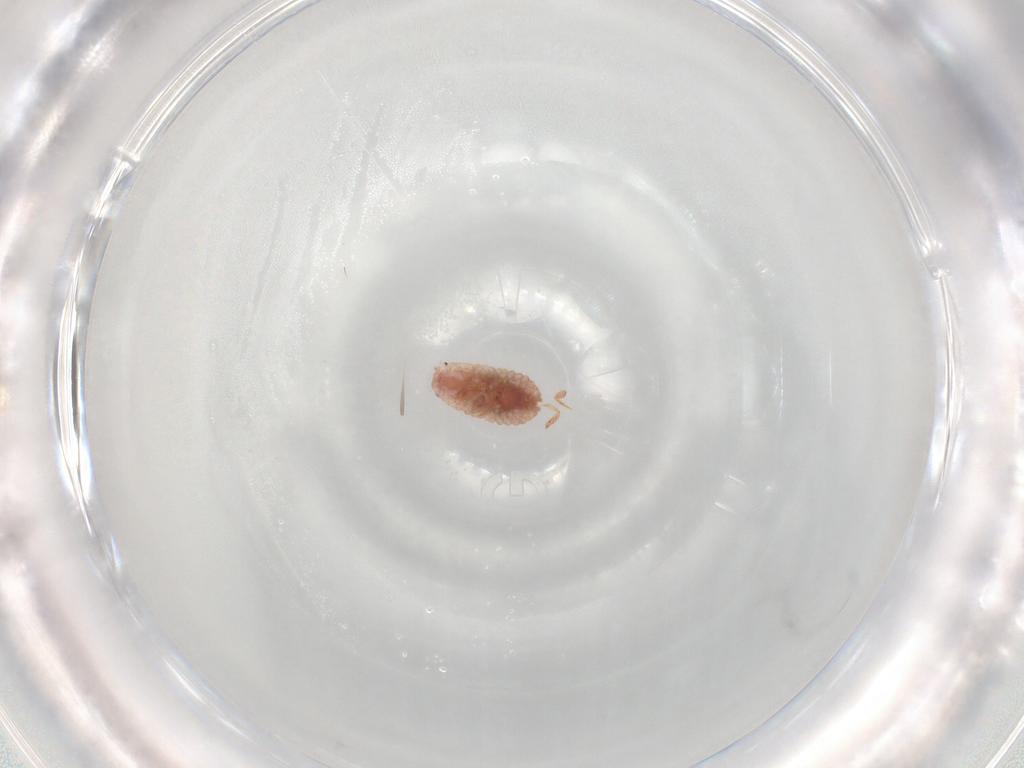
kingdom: Animalia
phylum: Arthropoda
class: Insecta
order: Hemiptera
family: Pseudococcidae
